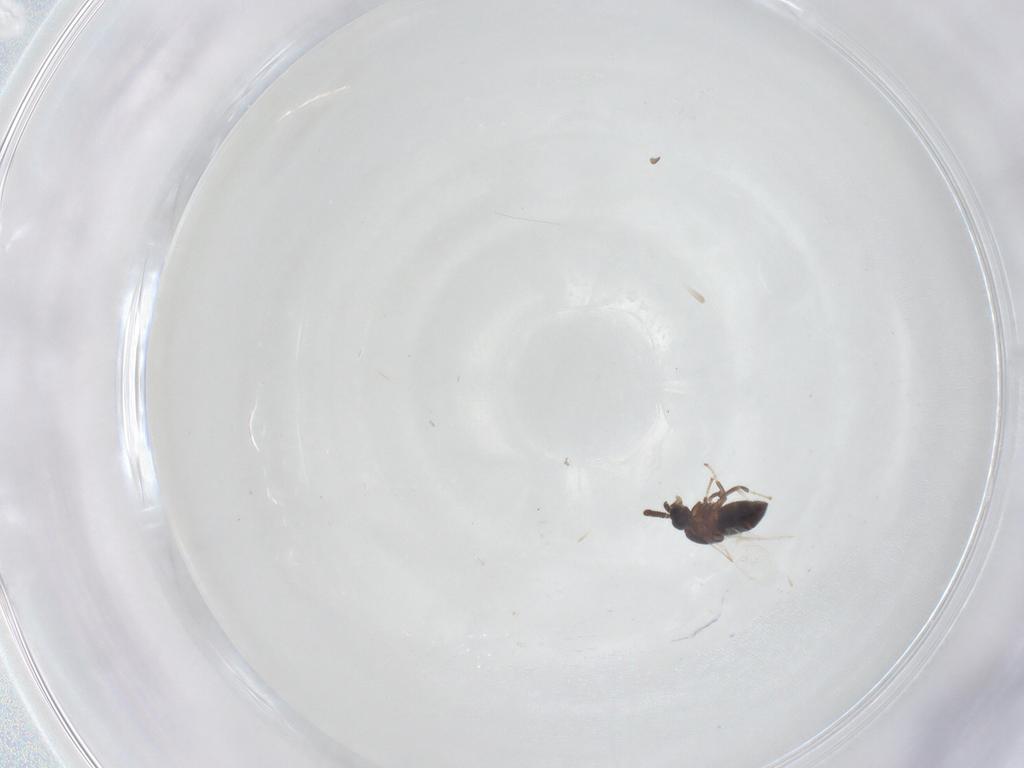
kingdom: Animalia
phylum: Arthropoda
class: Insecta
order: Diptera
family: Scatopsidae
